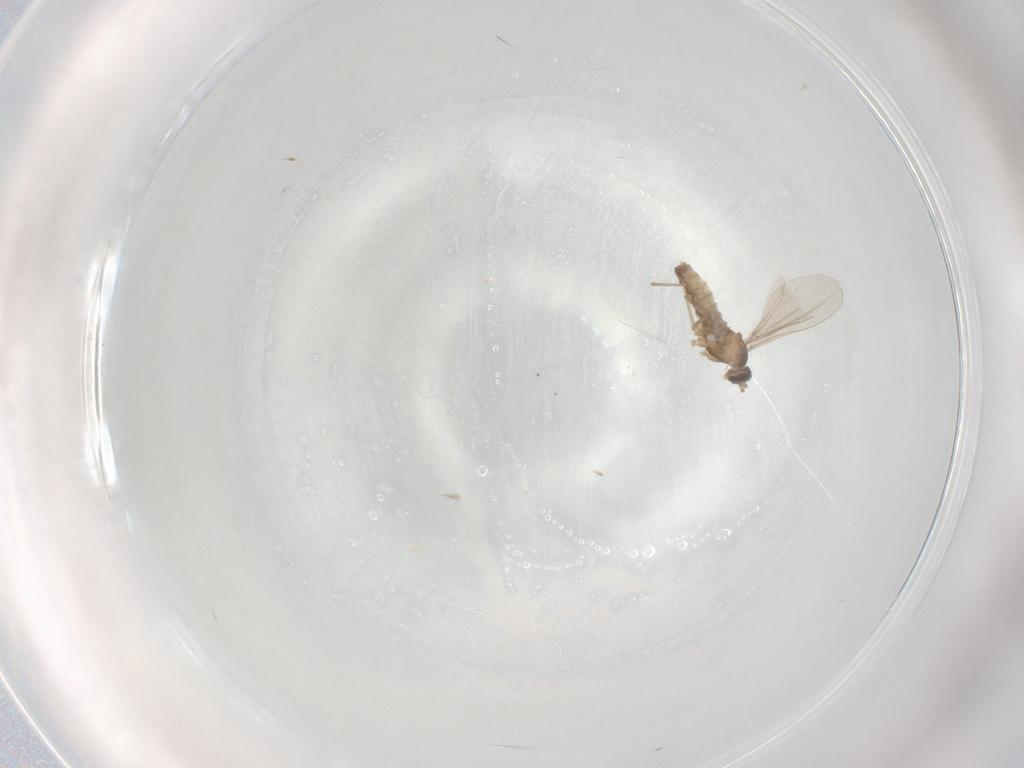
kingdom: Animalia
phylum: Arthropoda
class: Insecta
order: Diptera
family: Cecidomyiidae
